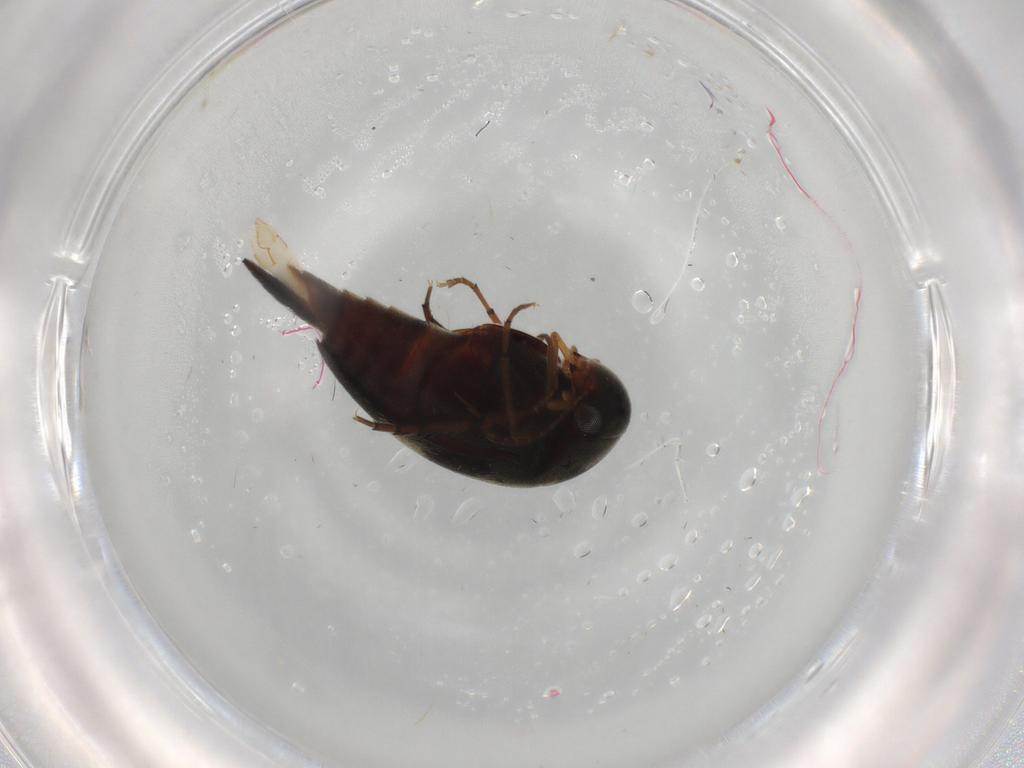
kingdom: Animalia
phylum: Arthropoda
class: Insecta
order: Coleoptera
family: Mordellidae
